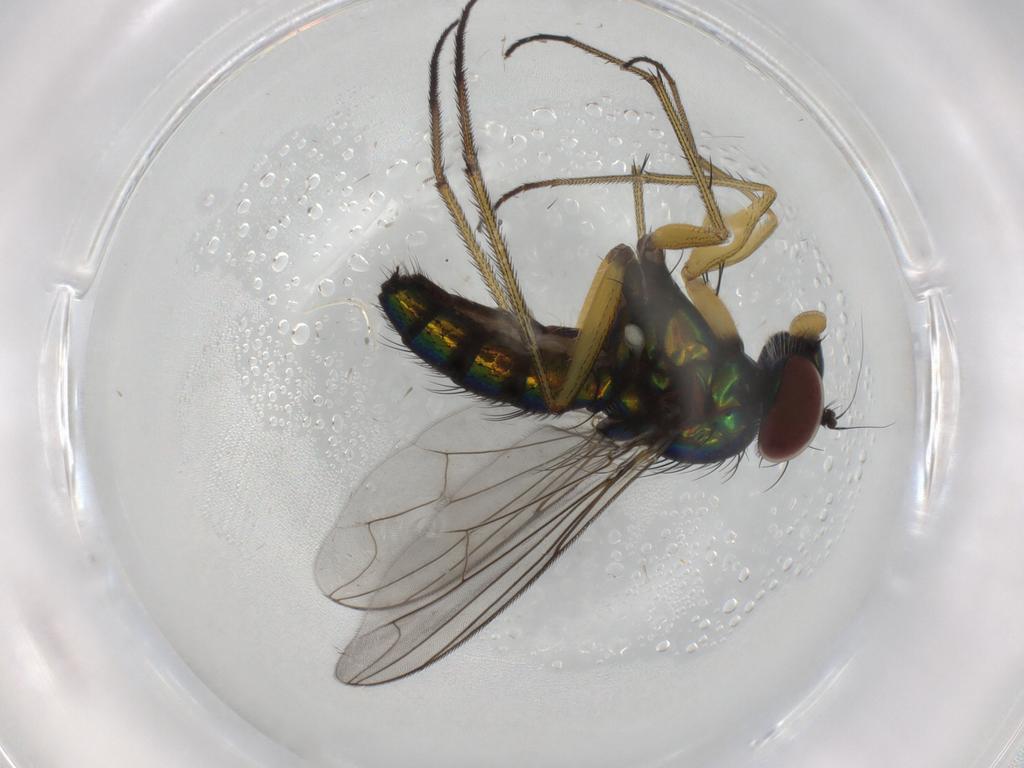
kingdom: Animalia
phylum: Arthropoda
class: Insecta
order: Diptera
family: Dolichopodidae
